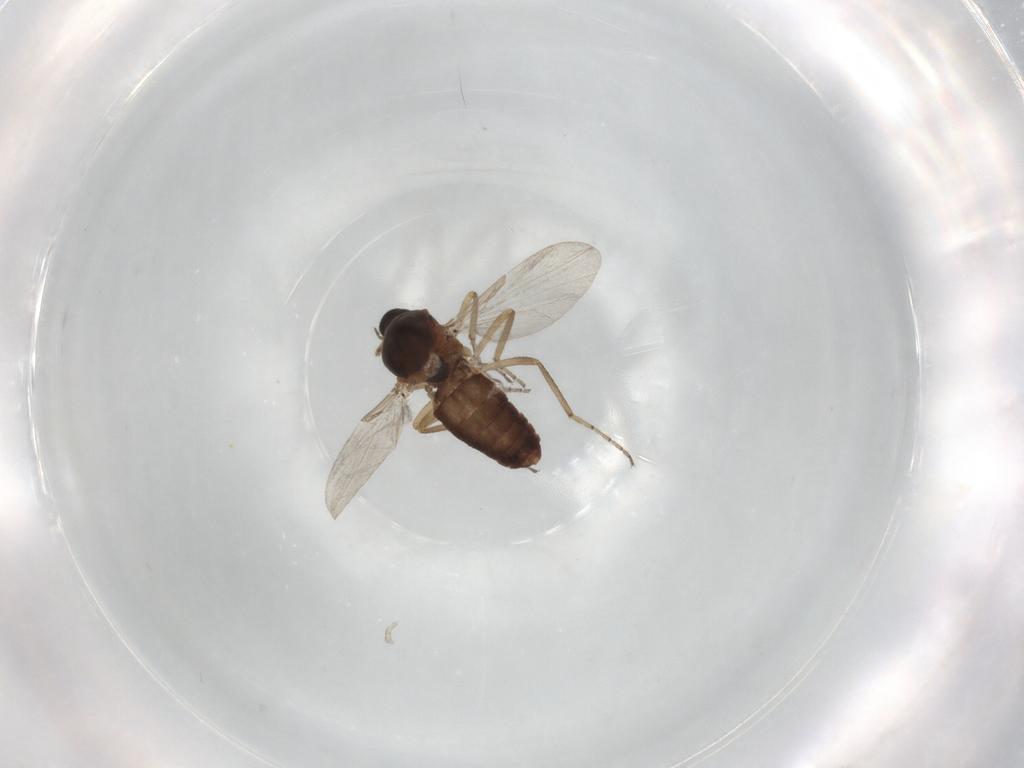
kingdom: Animalia
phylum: Arthropoda
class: Insecta
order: Diptera
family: Ceratopogonidae
